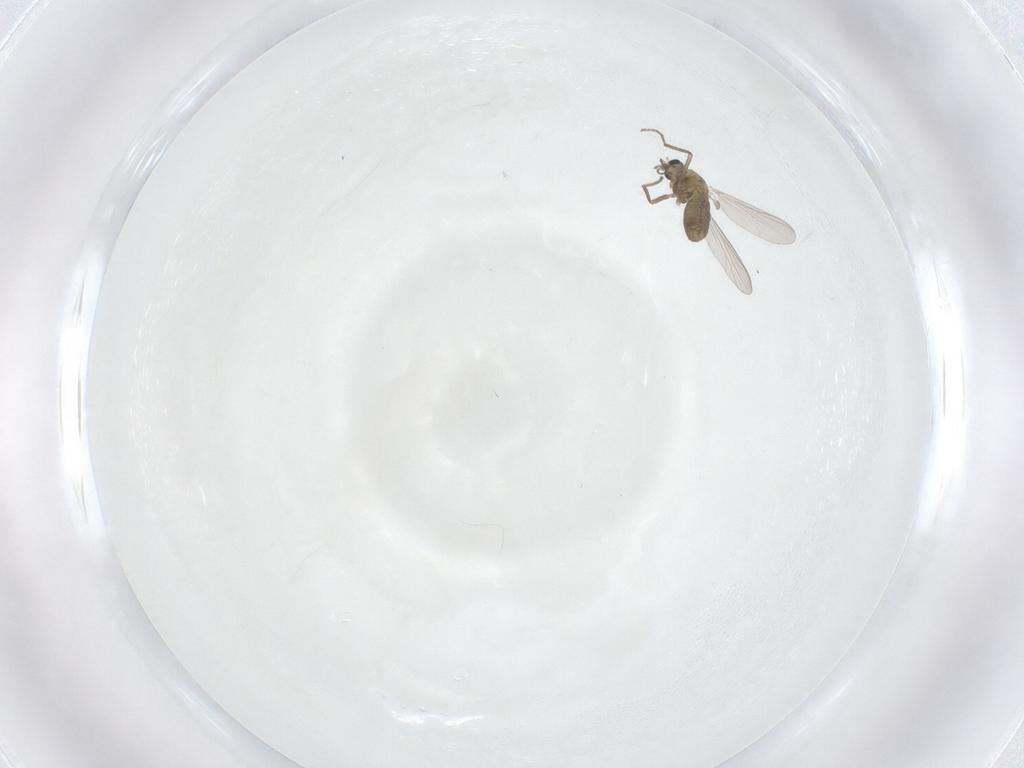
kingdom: Animalia
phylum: Arthropoda
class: Insecta
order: Diptera
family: Chironomidae
